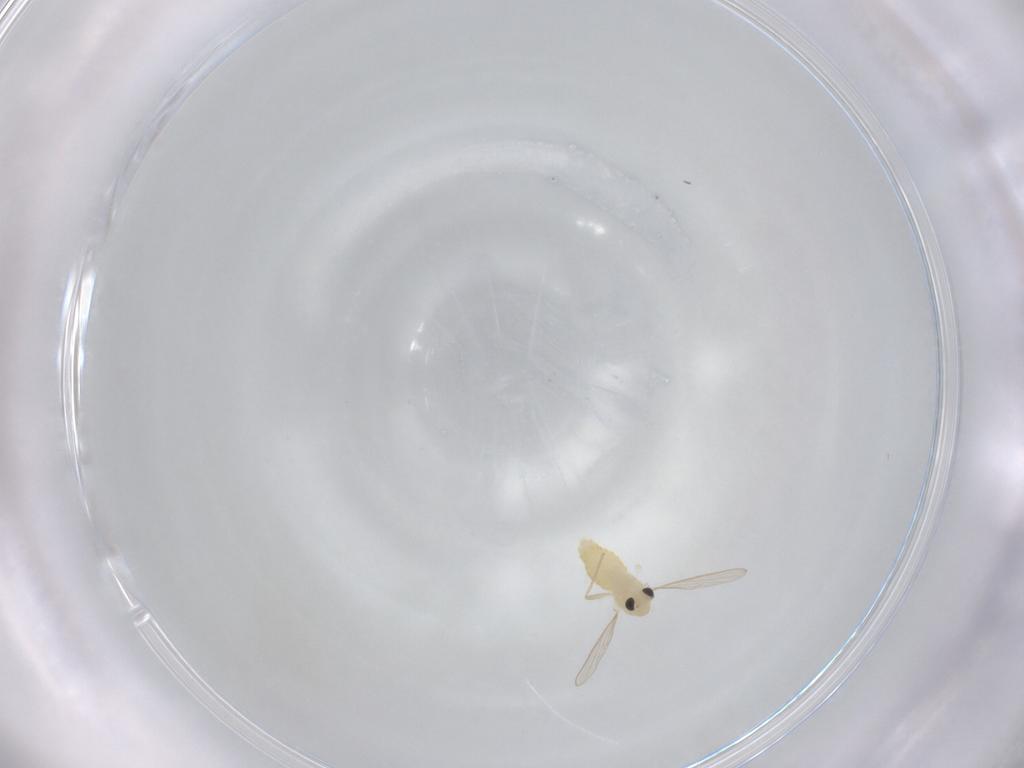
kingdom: Animalia
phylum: Arthropoda
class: Insecta
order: Diptera
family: Chironomidae
